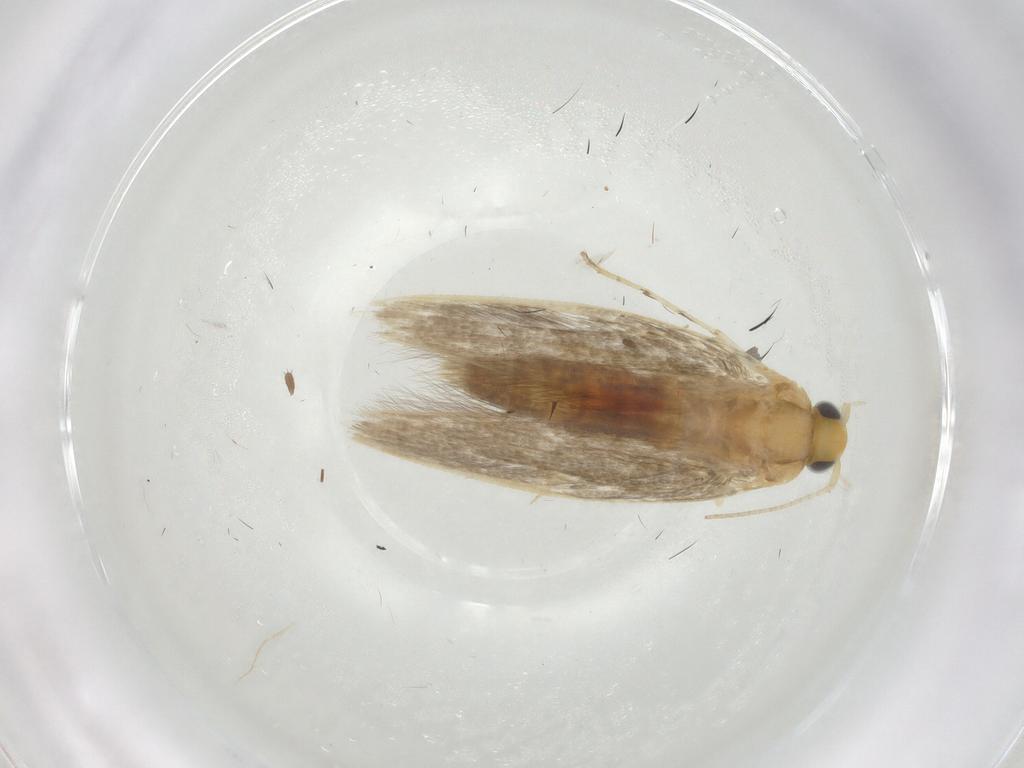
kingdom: Animalia
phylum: Arthropoda
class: Insecta
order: Lepidoptera
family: Argyresthiidae
